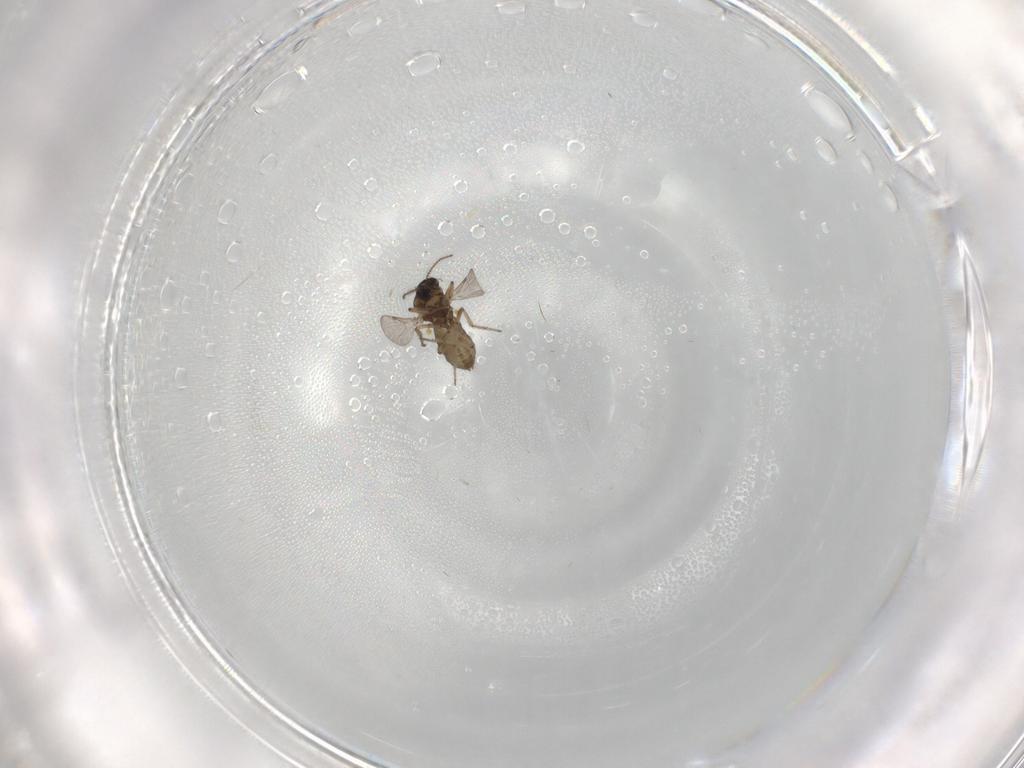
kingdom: Animalia
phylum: Arthropoda
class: Insecta
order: Diptera
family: Ceratopogonidae
